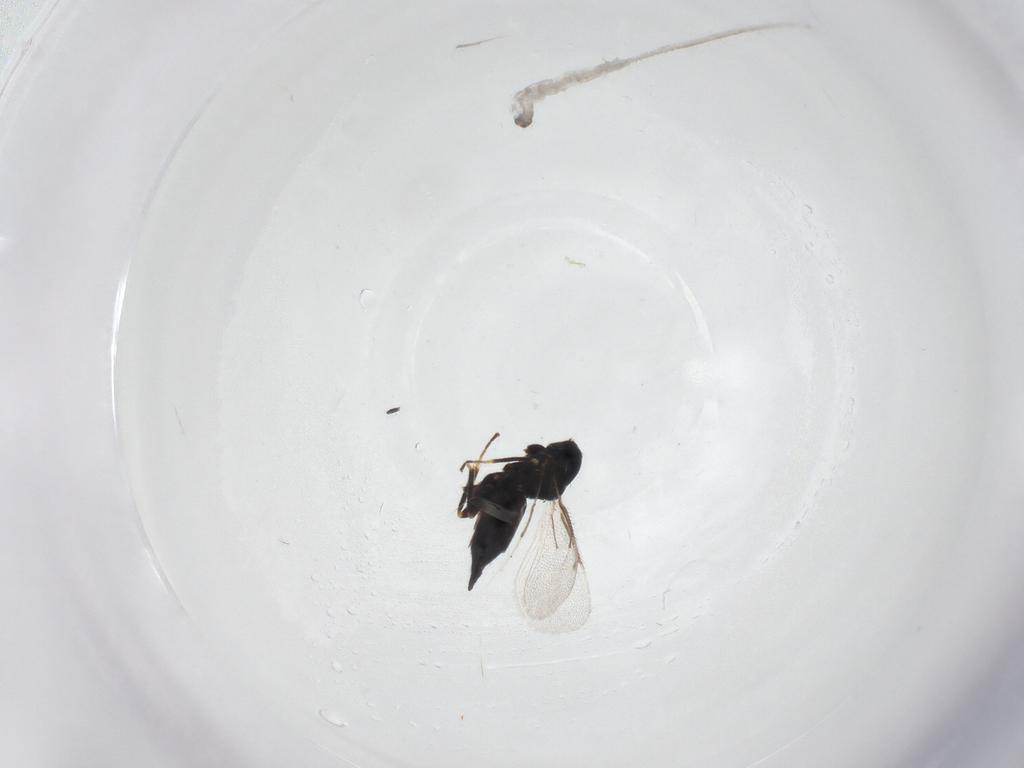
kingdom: Animalia
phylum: Arthropoda
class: Insecta
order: Hymenoptera
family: Eulophidae
